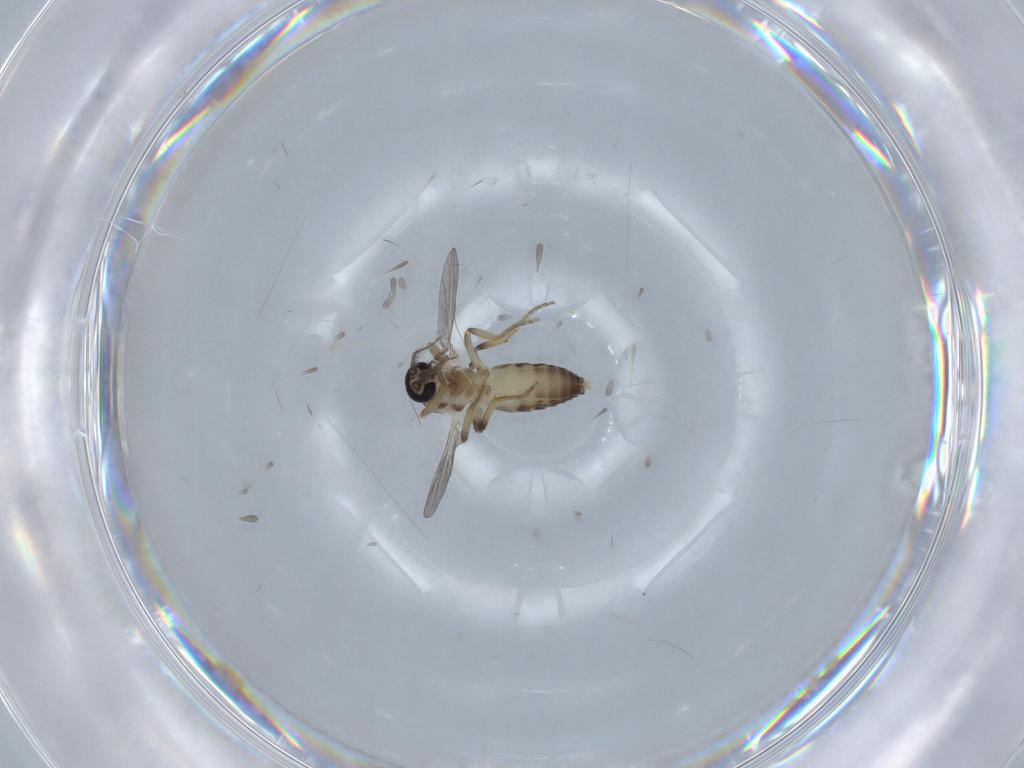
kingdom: Animalia
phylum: Arthropoda
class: Insecta
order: Diptera
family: Ceratopogonidae
